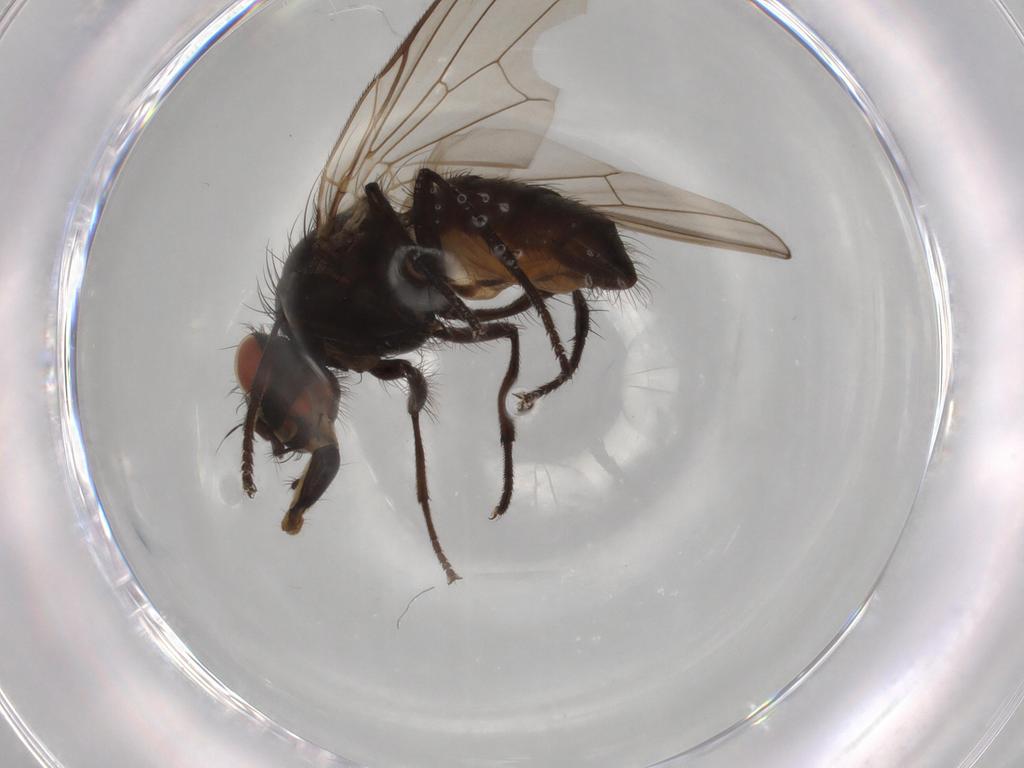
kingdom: Animalia
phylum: Arthropoda
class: Insecta
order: Diptera
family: Anthomyiidae
